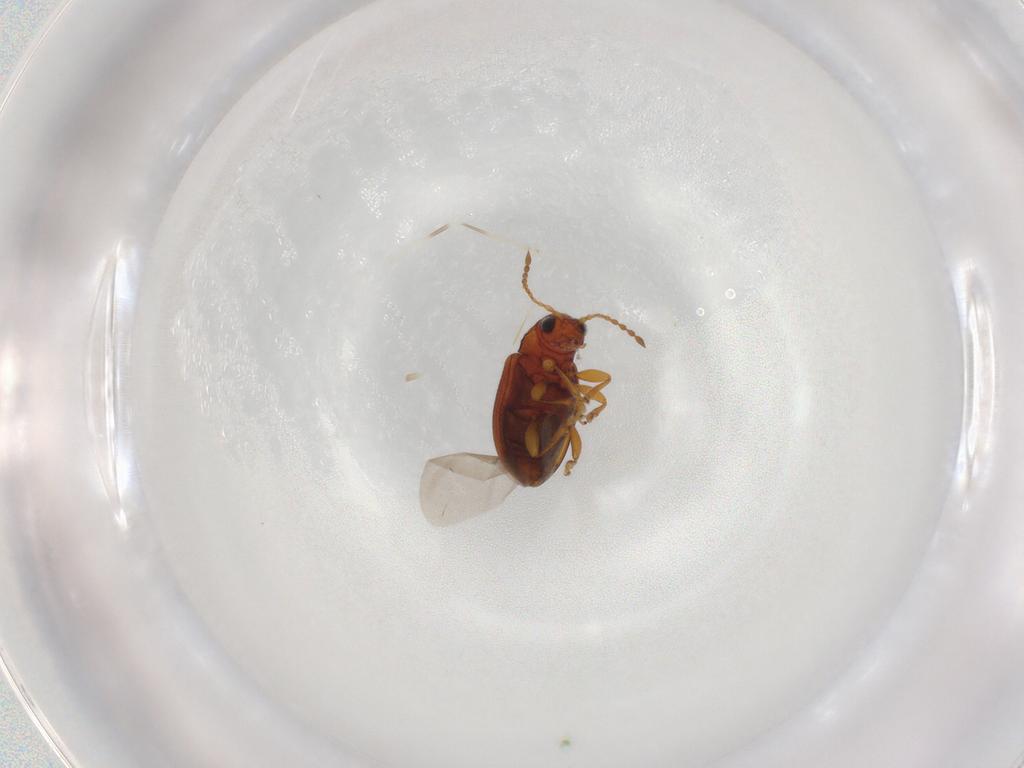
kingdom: Animalia
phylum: Arthropoda
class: Insecta
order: Coleoptera
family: Chrysomelidae
